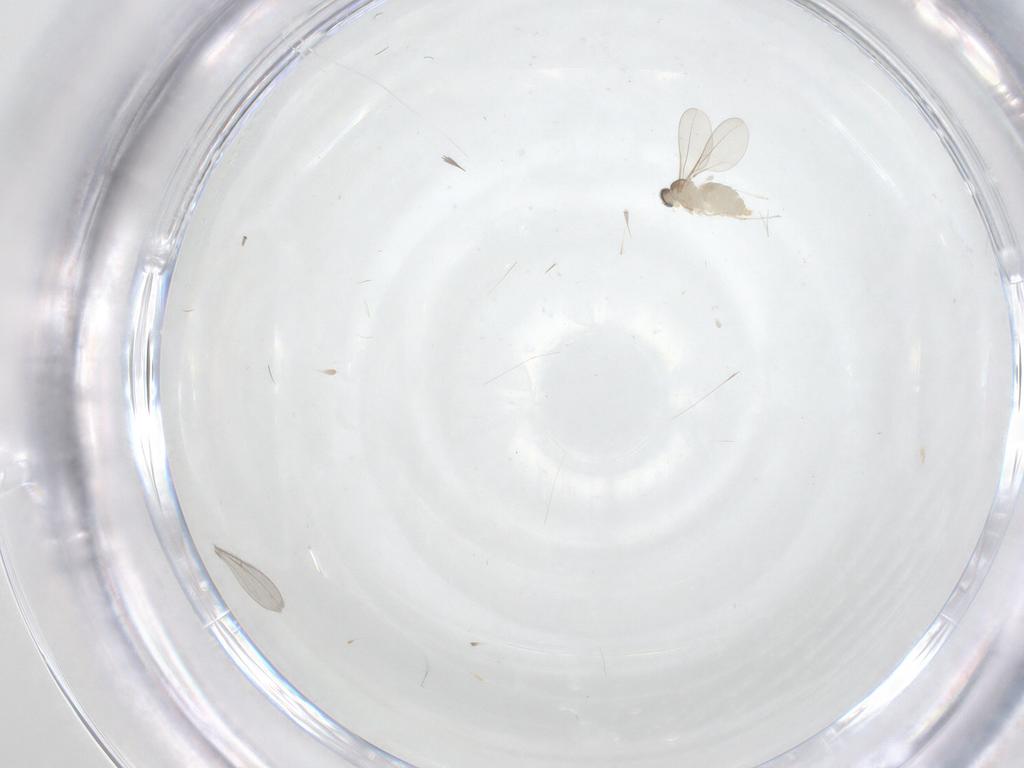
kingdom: Animalia
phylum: Arthropoda
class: Insecta
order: Diptera
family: Cecidomyiidae
